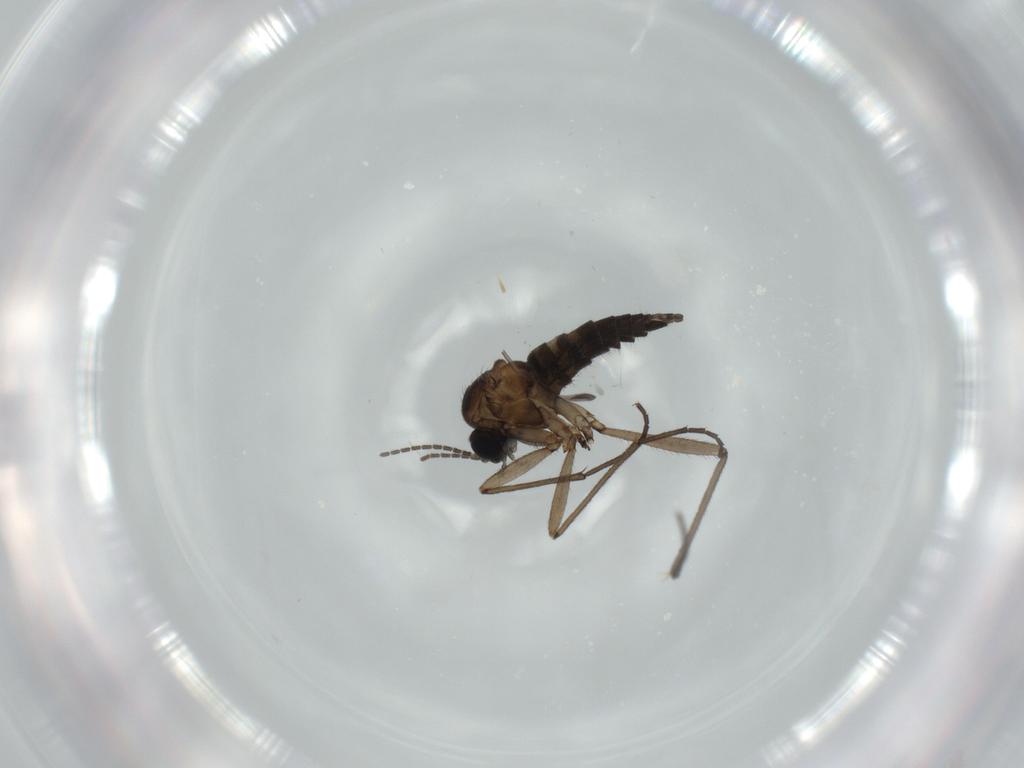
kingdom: Animalia
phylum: Arthropoda
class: Insecta
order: Diptera
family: Sciaridae
